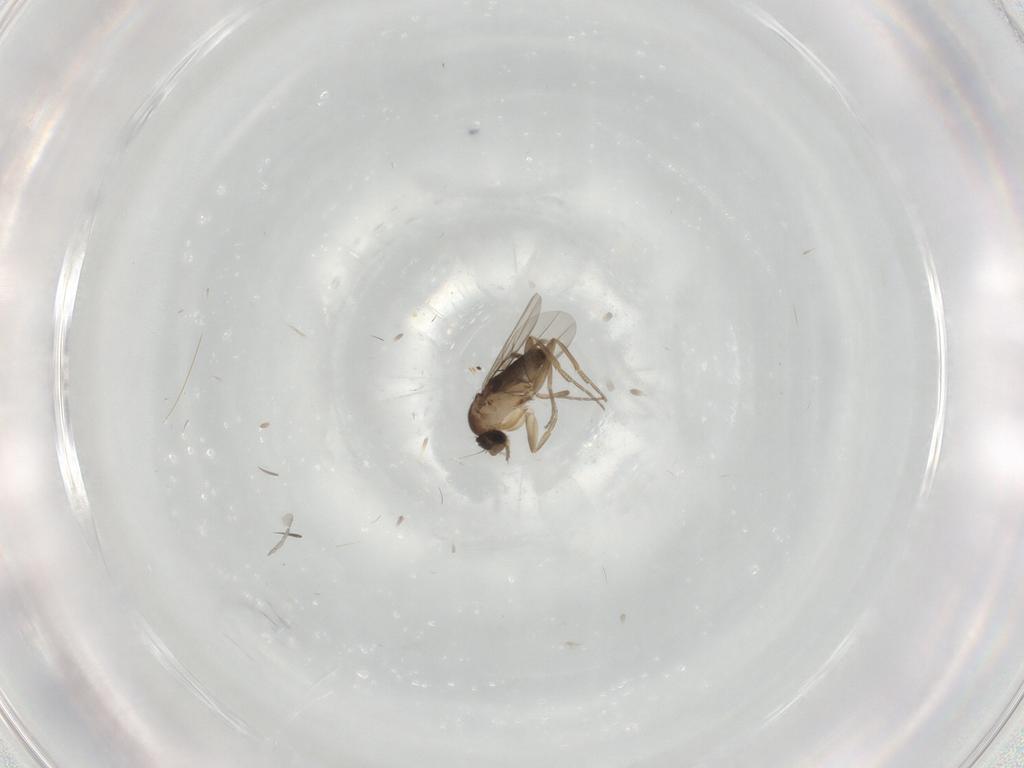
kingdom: Animalia
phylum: Arthropoda
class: Insecta
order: Diptera
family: Phoridae
